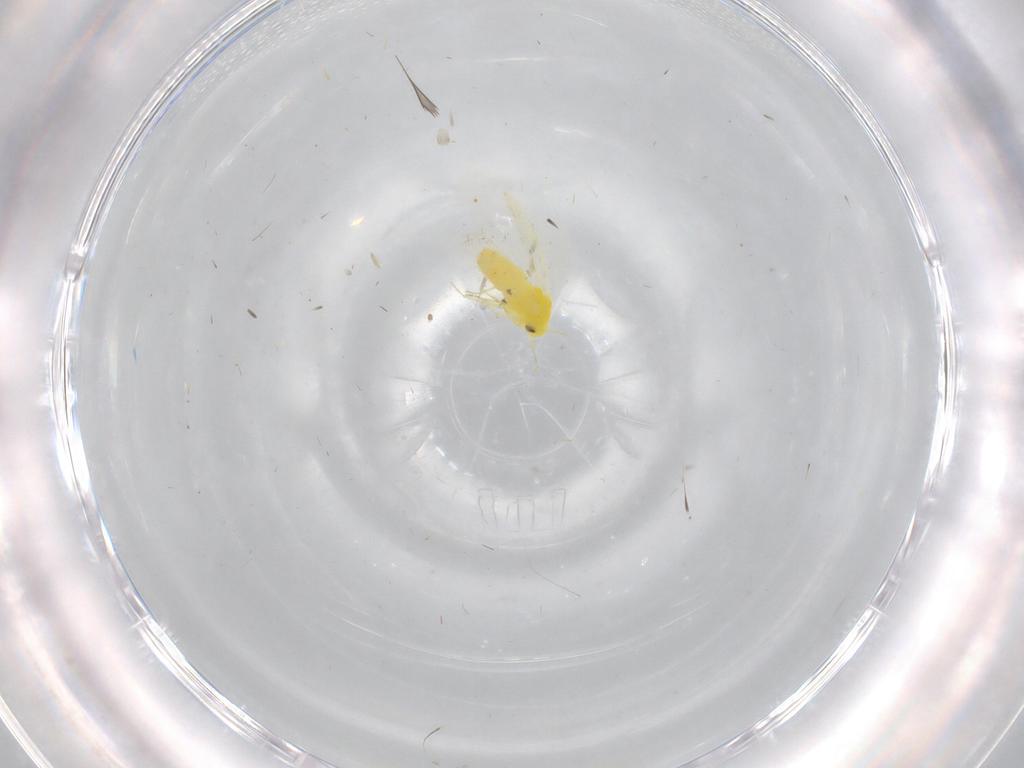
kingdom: Animalia
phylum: Arthropoda
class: Insecta
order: Hemiptera
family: Aleyrodidae
